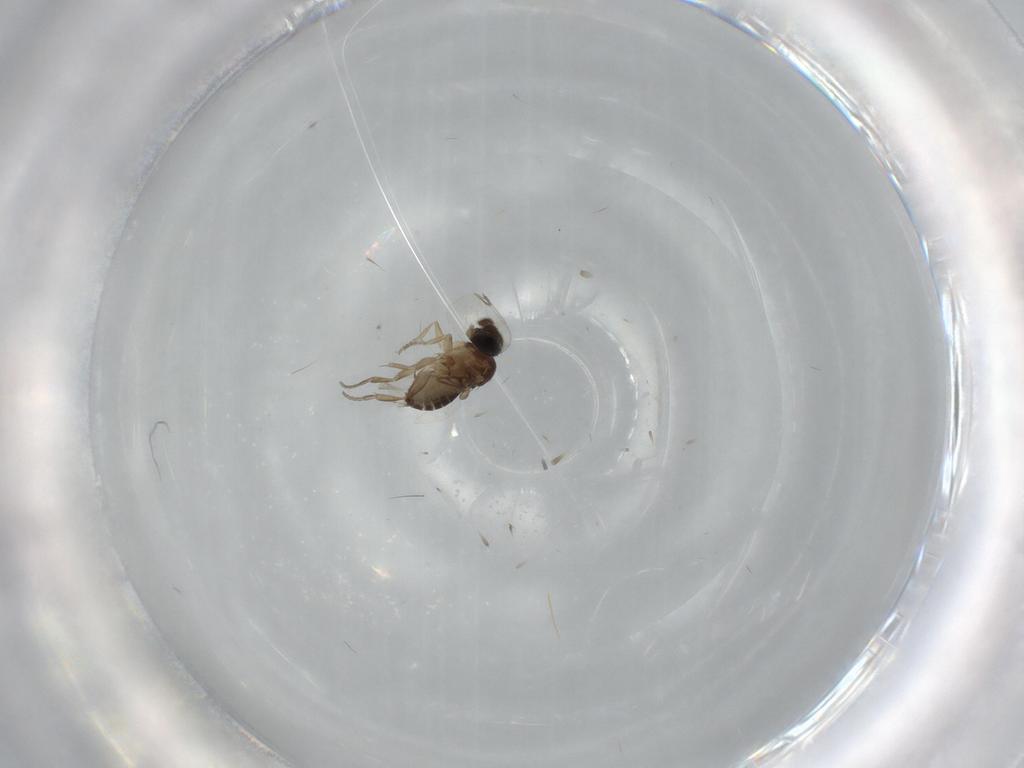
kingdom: Animalia
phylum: Arthropoda
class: Insecta
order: Diptera
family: Phoridae
